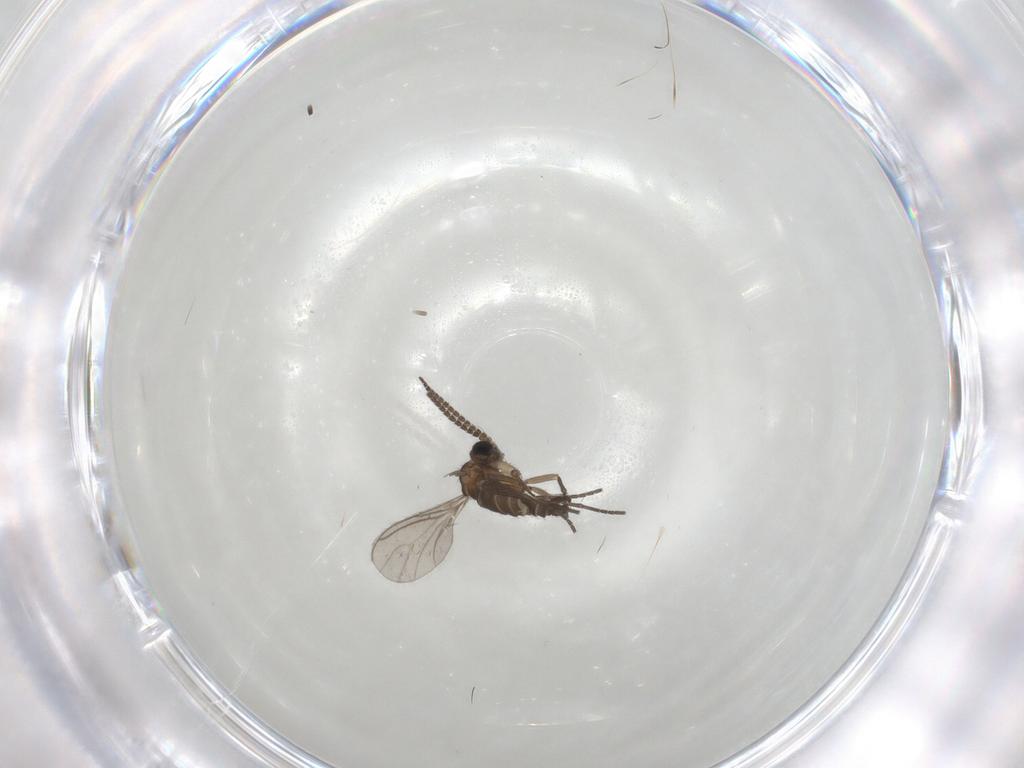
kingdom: Animalia
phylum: Arthropoda
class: Insecta
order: Diptera
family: Sciaridae
